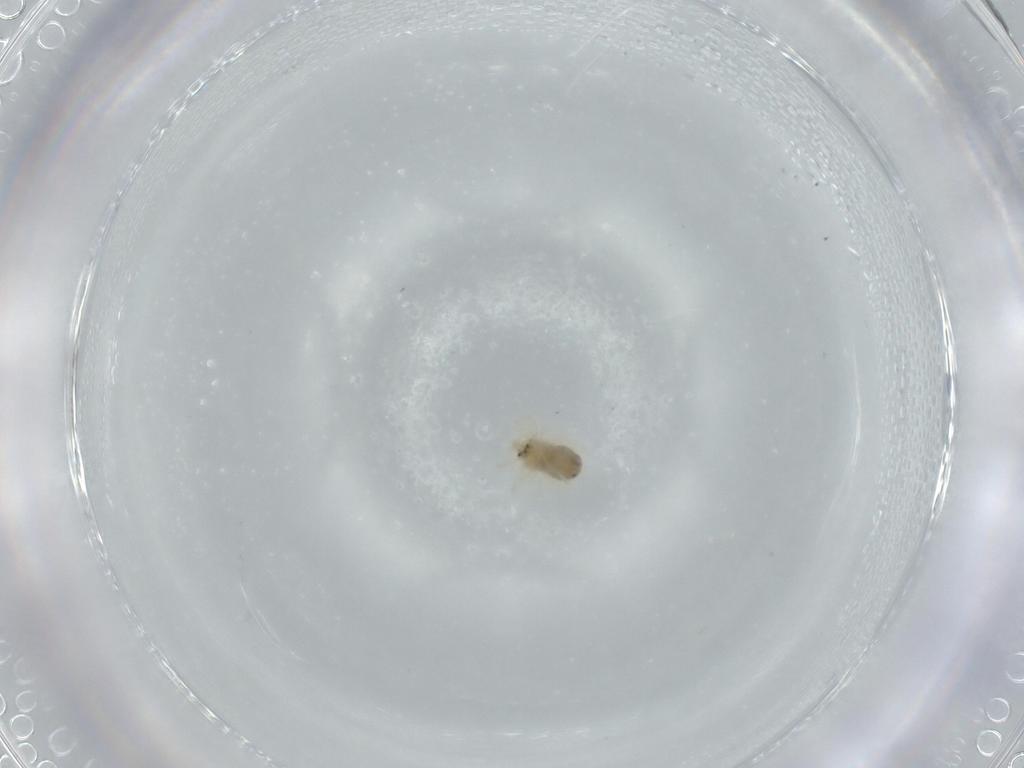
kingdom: Animalia
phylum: Arthropoda
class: Arachnida
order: Trombidiformes
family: Anystidae
